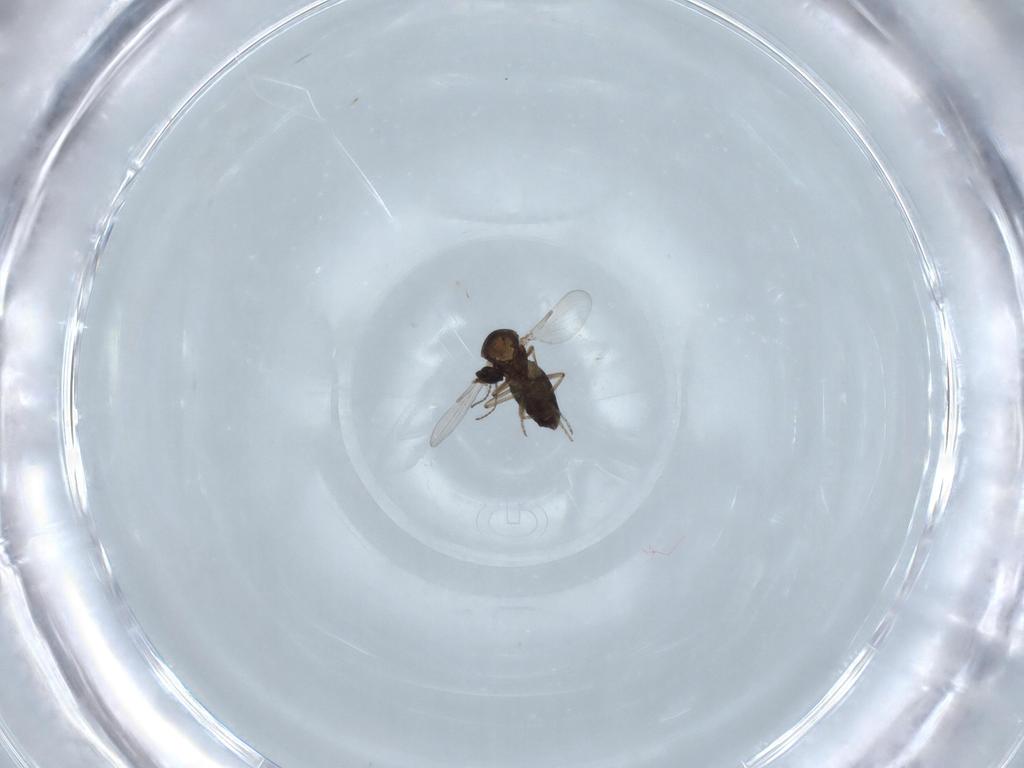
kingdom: Animalia
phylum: Arthropoda
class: Insecta
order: Diptera
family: Ceratopogonidae
